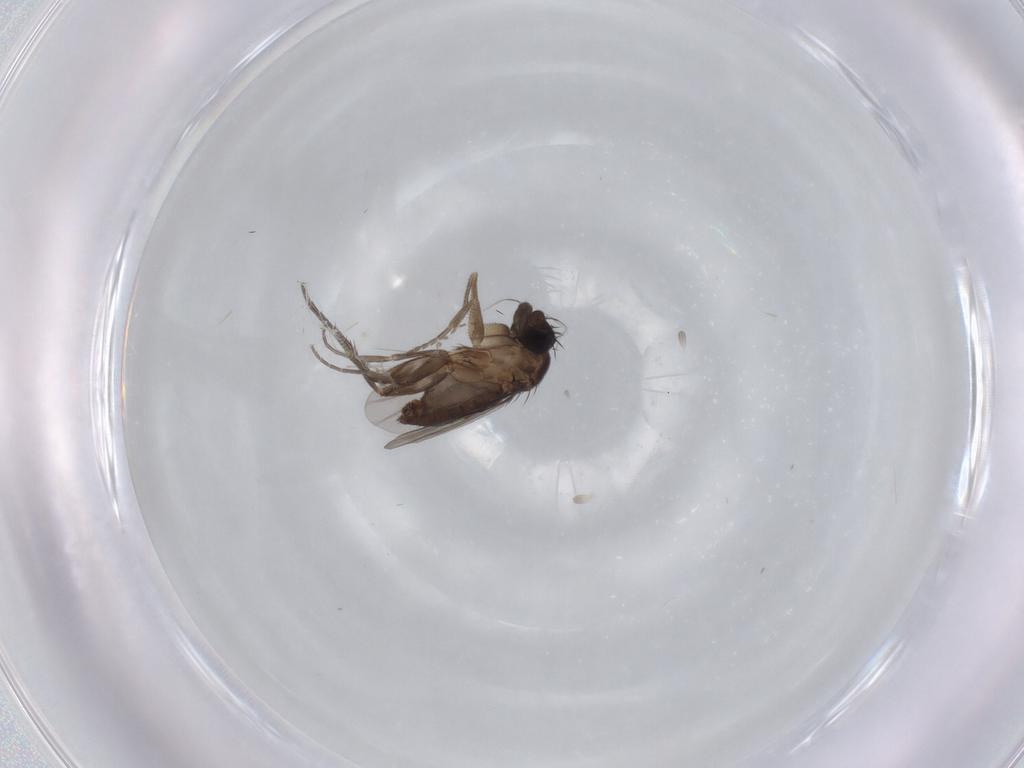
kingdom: Animalia
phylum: Arthropoda
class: Insecta
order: Diptera
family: Phoridae
